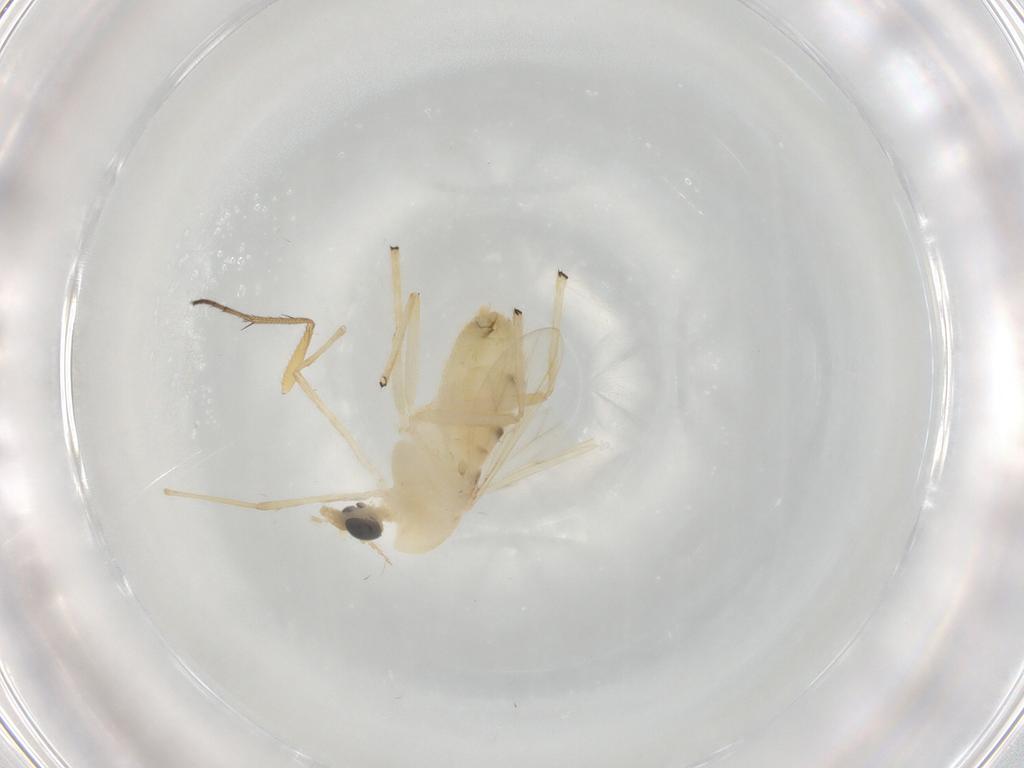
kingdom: Animalia
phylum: Arthropoda
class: Insecta
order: Diptera
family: Chironomidae
